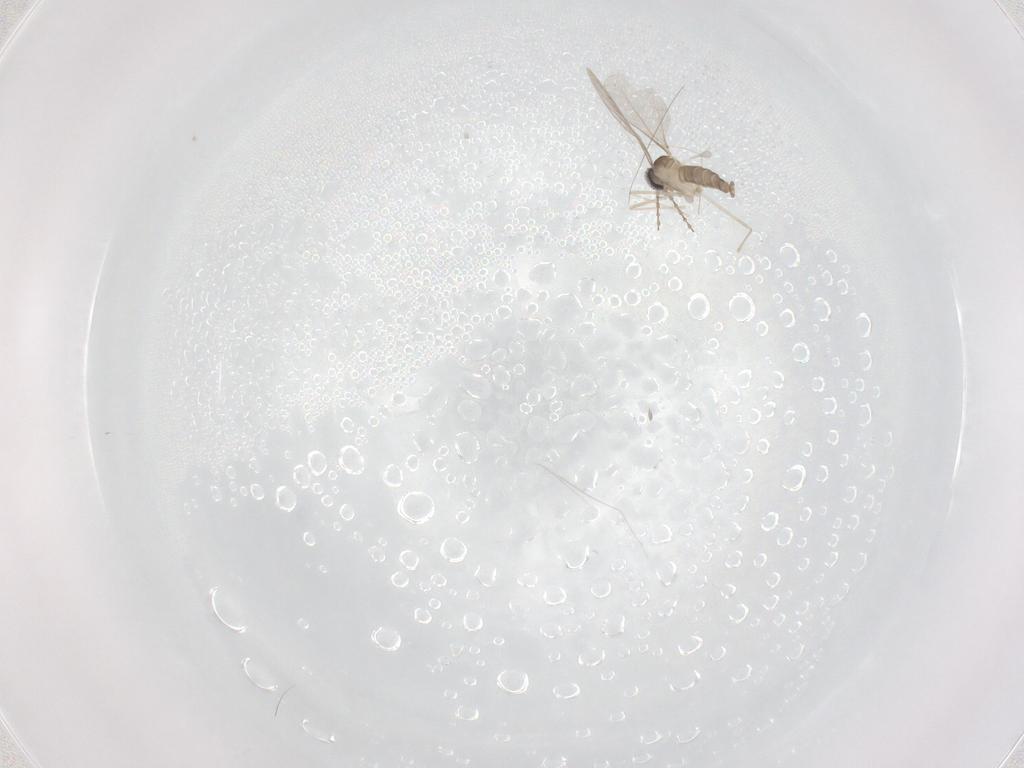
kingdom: Animalia
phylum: Arthropoda
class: Insecta
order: Diptera
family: Cecidomyiidae
